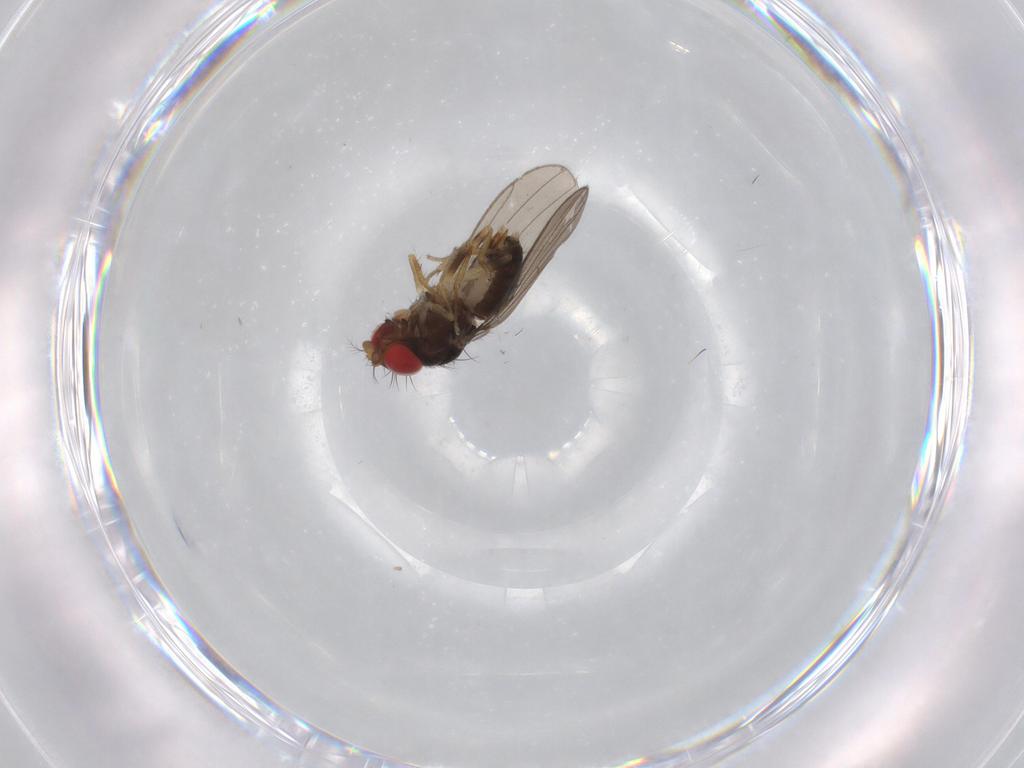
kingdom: Animalia
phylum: Arthropoda
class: Insecta
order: Diptera
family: Drosophilidae
